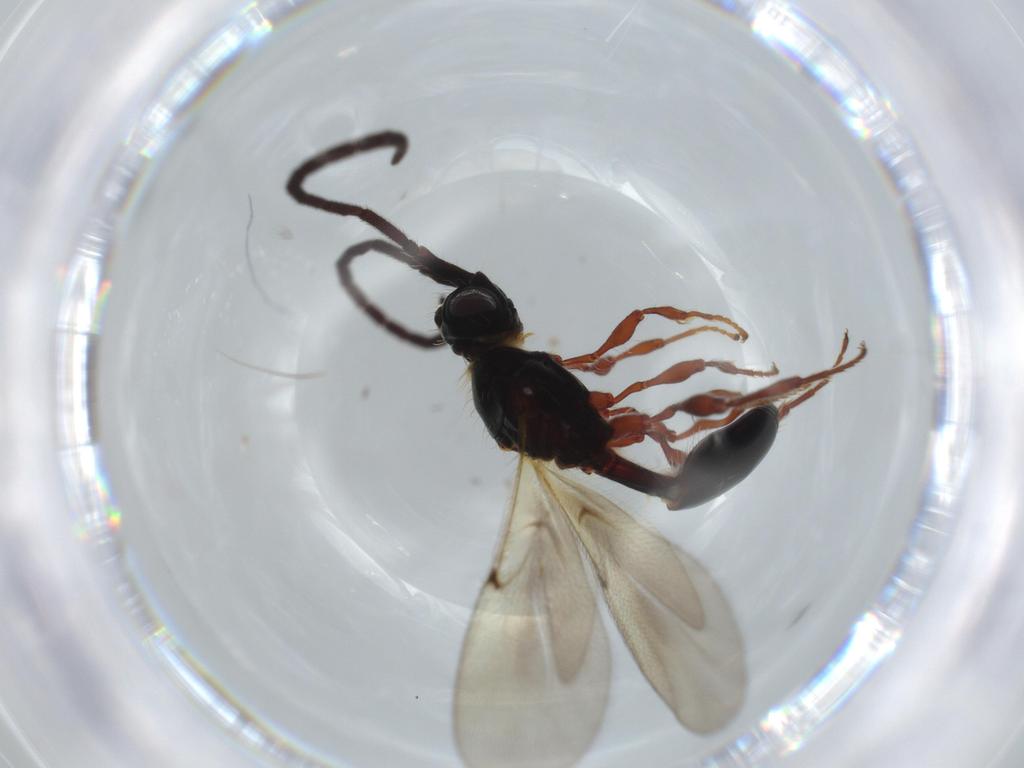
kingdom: Animalia
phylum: Arthropoda
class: Insecta
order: Hymenoptera
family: Diapriidae
